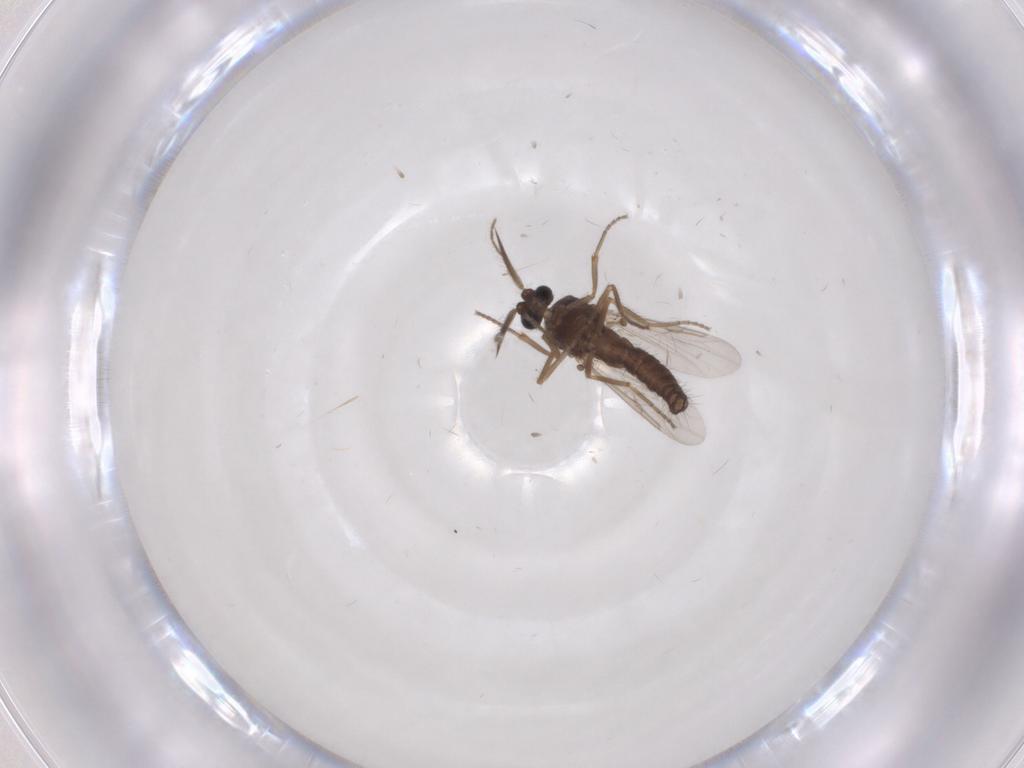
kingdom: Animalia
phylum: Arthropoda
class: Insecta
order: Diptera
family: Ceratopogonidae
